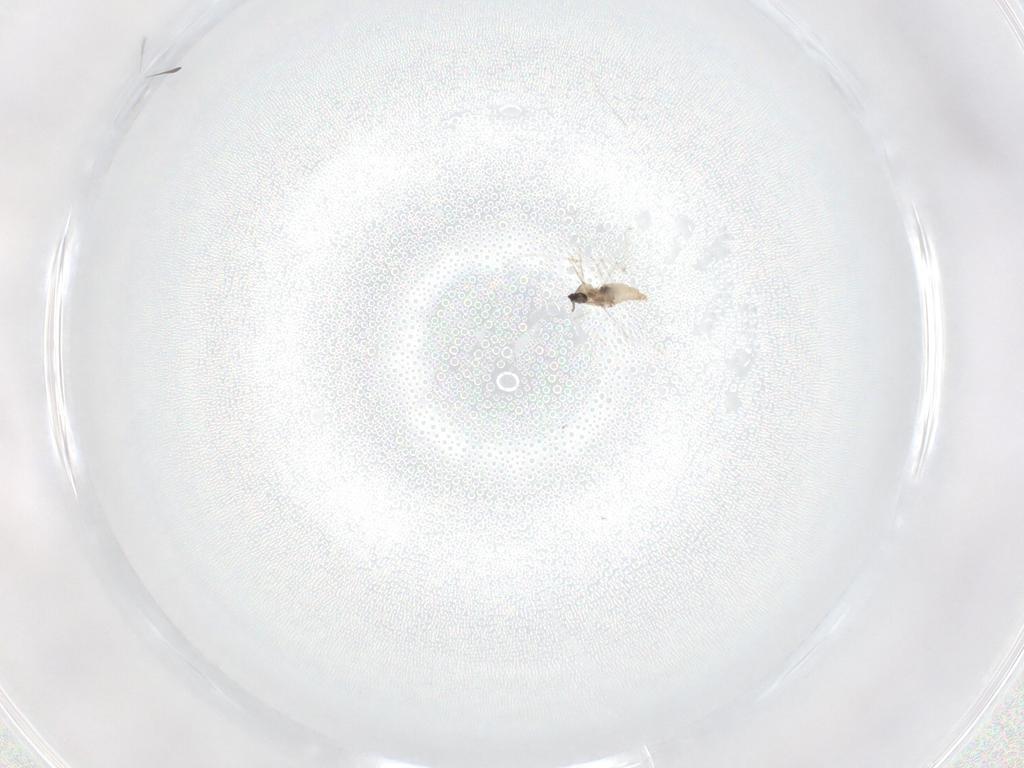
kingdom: Animalia
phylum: Arthropoda
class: Insecta
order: Diptera
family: Cecidomyiidae
